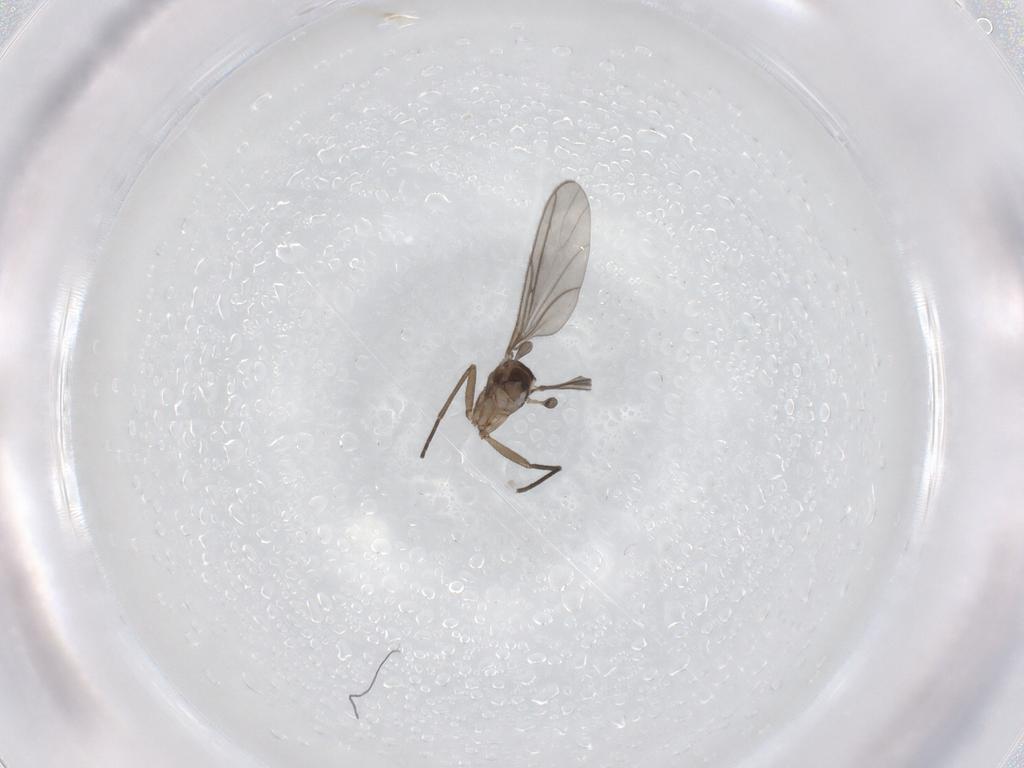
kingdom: Animalia
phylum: Arthropoda
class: Insecta
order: Diptera
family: Sciaridae
